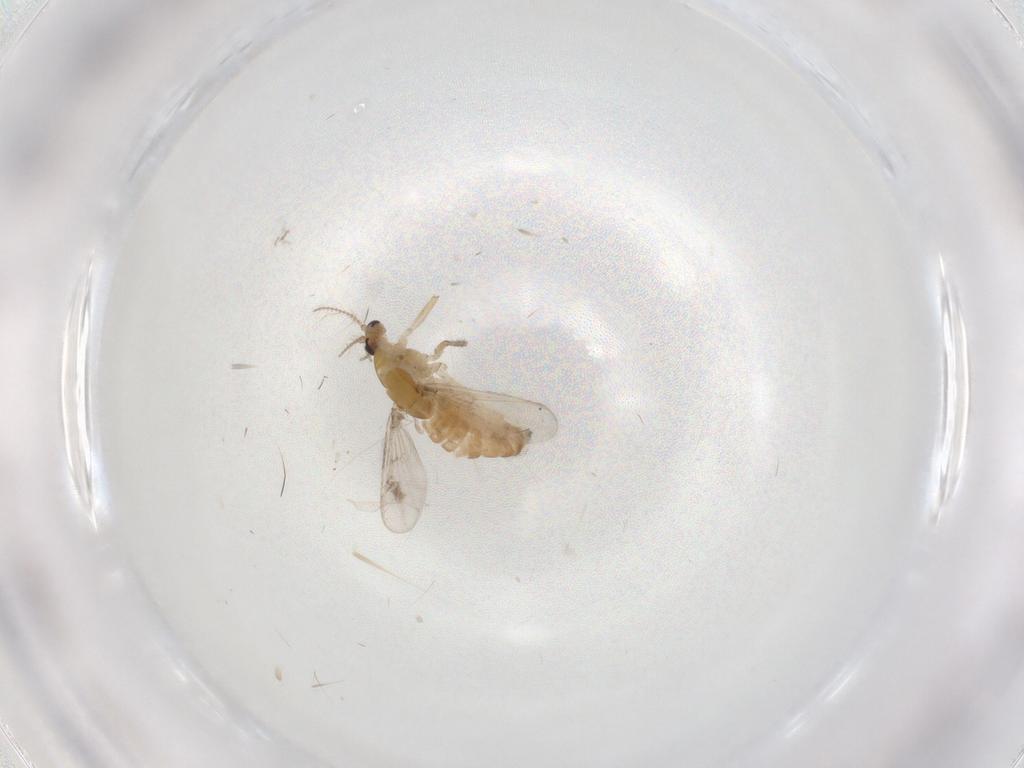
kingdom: Animalia
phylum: Arthropoda
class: Insecta
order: Diptera
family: Chironomidae
